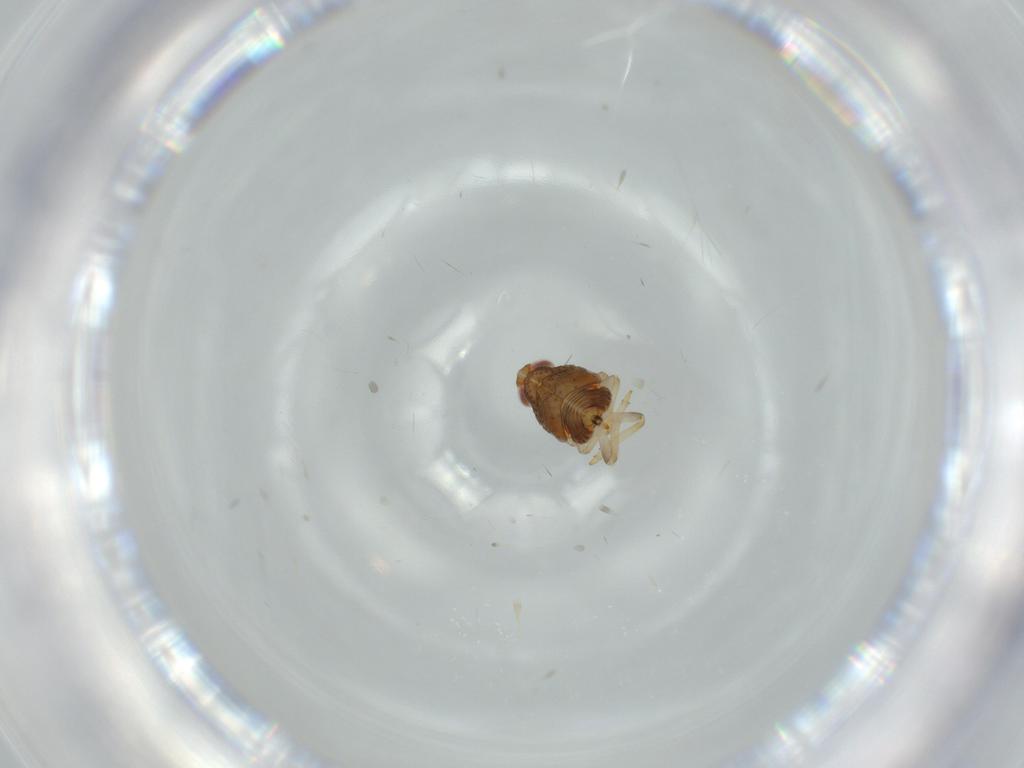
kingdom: Animalia
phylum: Arthropoda
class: Insecta
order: Hemiptera
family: Issidae
